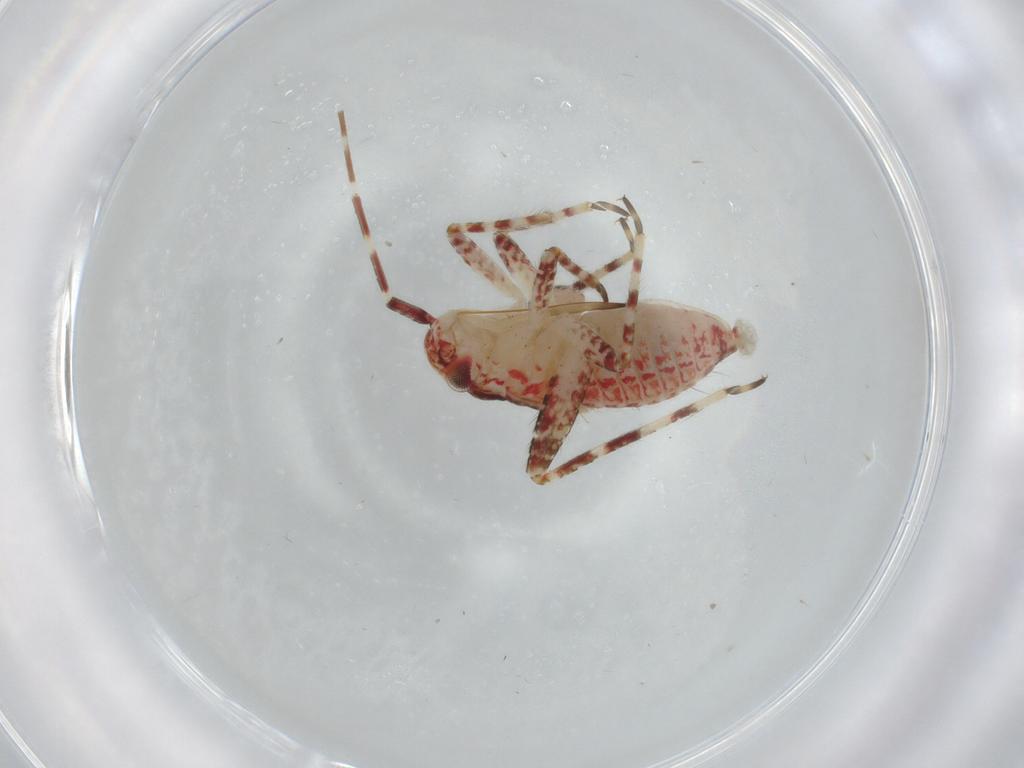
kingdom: Animalia
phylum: Arthropoda
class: Insecta
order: Hemiptera
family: Miridae
